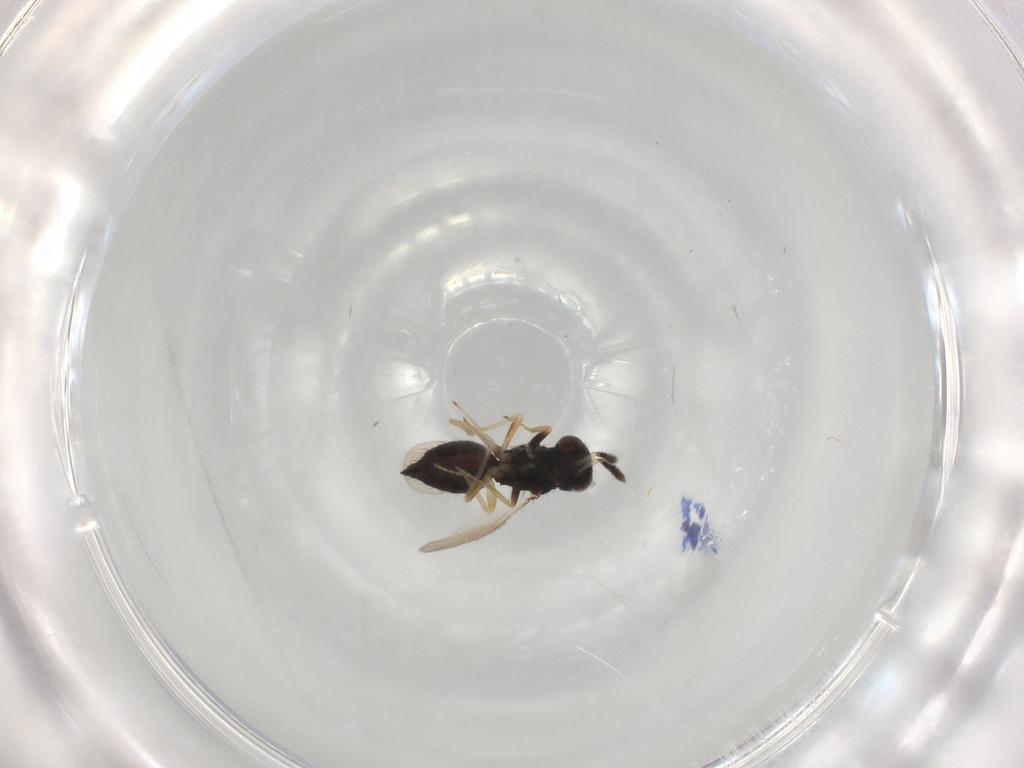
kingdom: Animalia
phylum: Arthropoda
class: Insecta
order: Hymenoptera
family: Eulophidae
